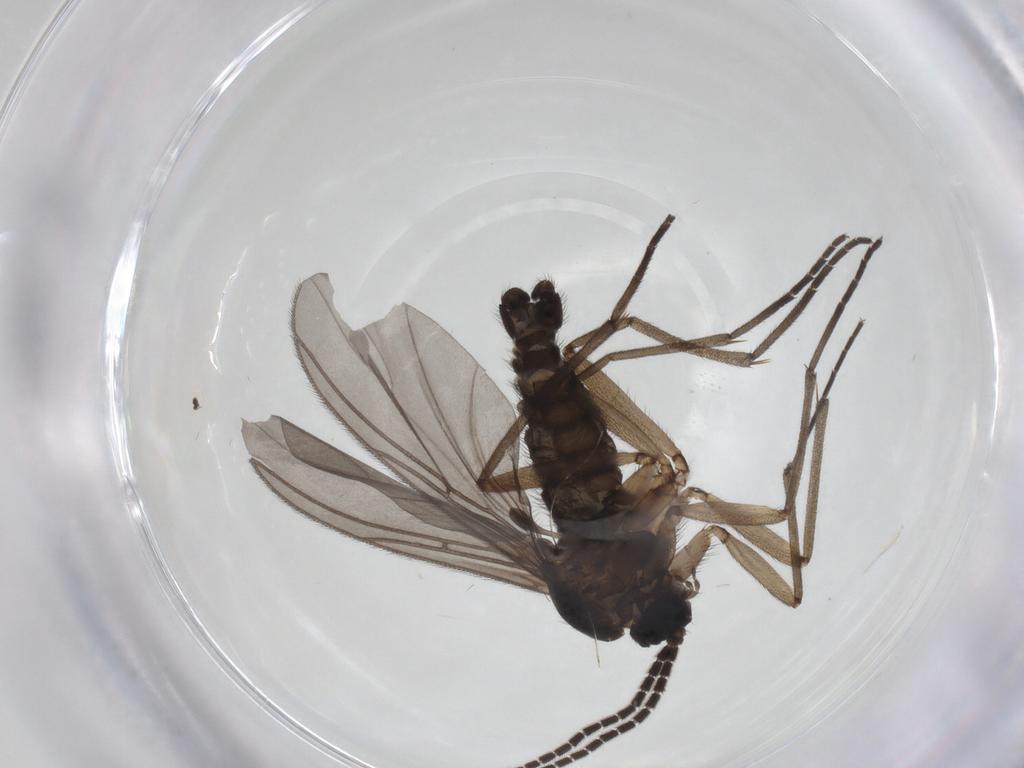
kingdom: Animalia
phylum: Arthropoda
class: Insecta
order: Diptera
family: Sciaridae
